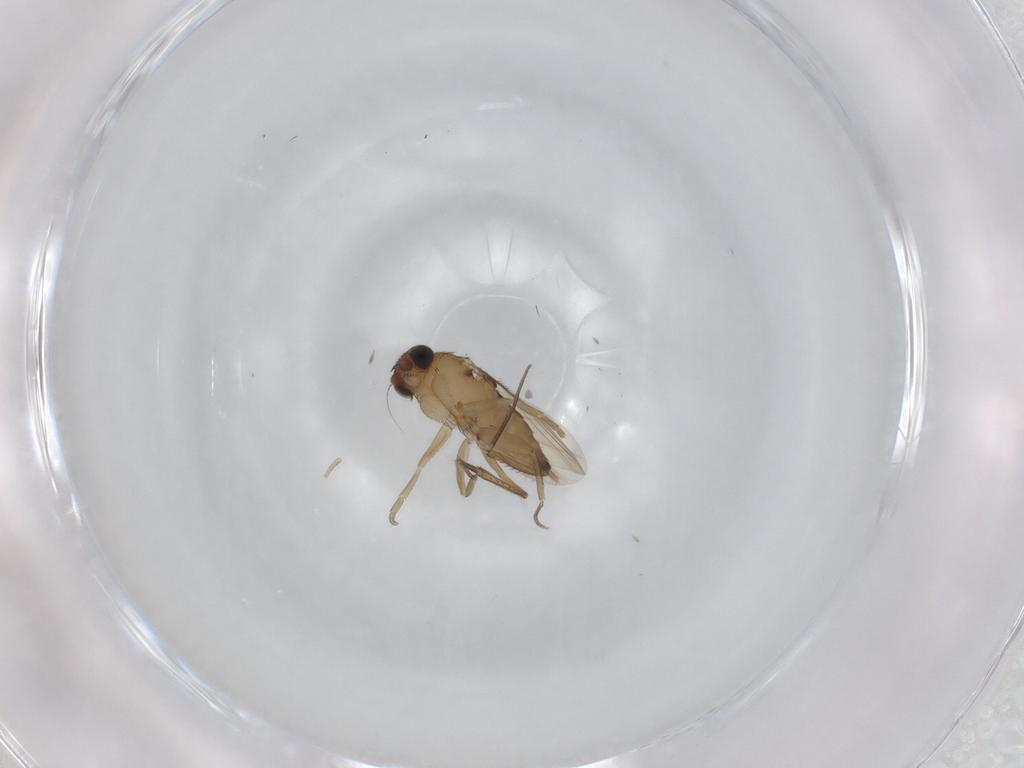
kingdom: Animalia
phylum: Arthropoda
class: Insecta
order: Diptera
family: Phoridae
